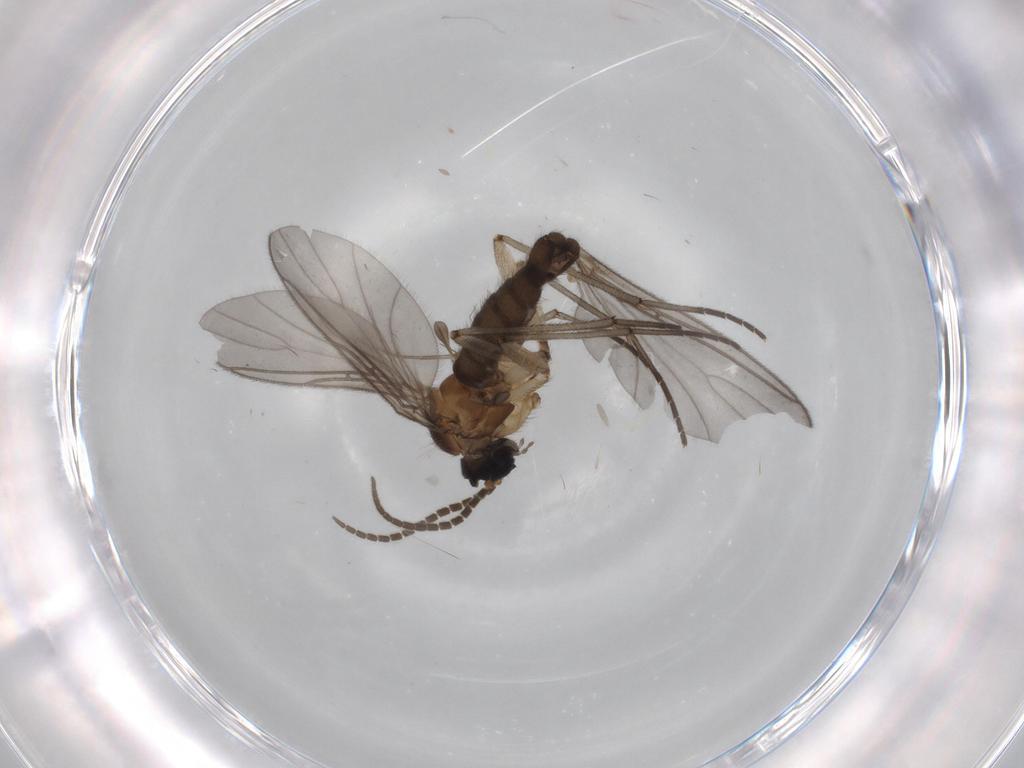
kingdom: Animalia
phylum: Arthropoda
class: Insecta
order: Diptera
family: Sciaridae
